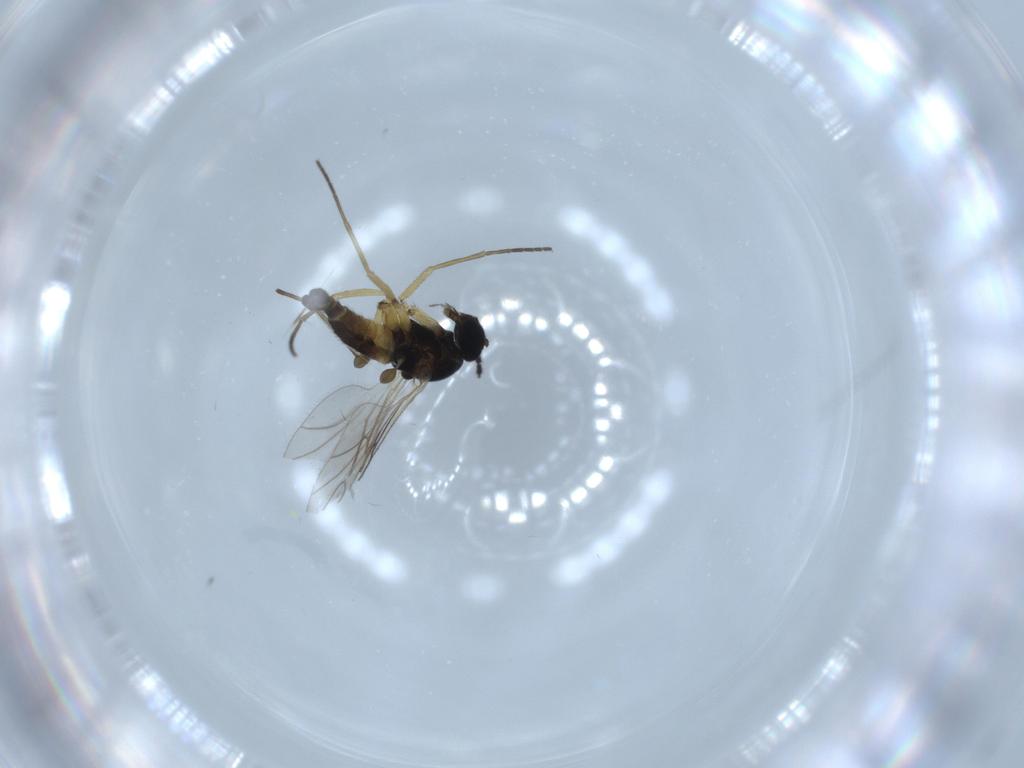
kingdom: Animalia
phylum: Arthropoda
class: Insecta
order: Diptera
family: Sciaridae
